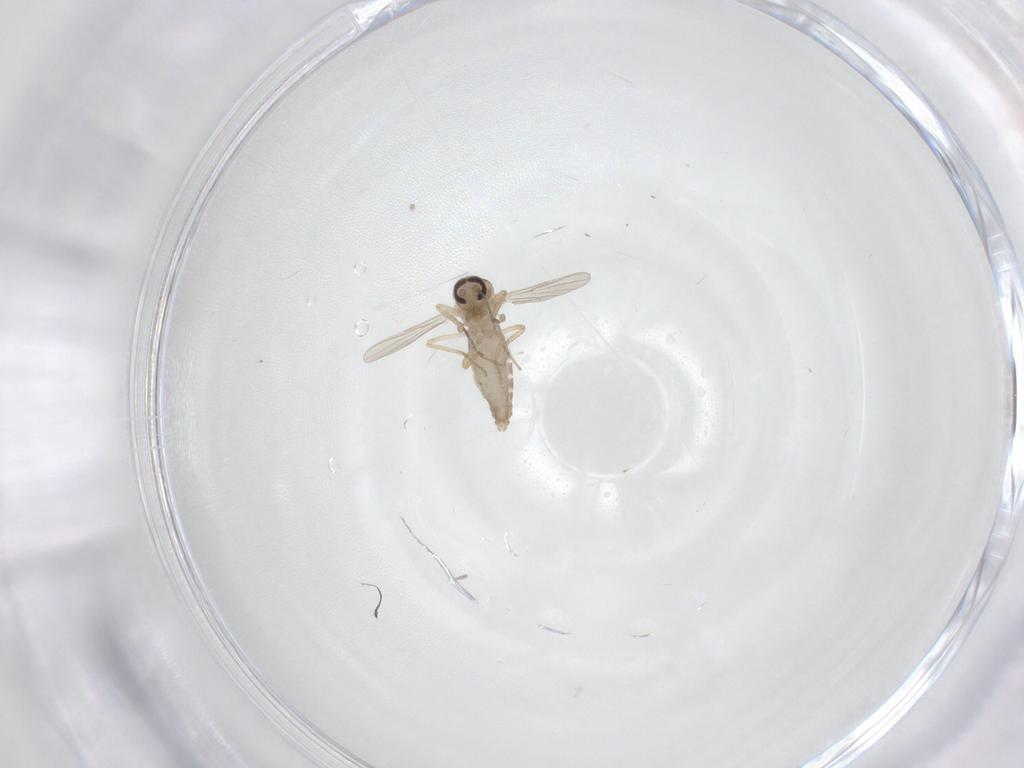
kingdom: Animalia
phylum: Arthropoda
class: Insecta
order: Diptera
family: Ceratopogonidae
